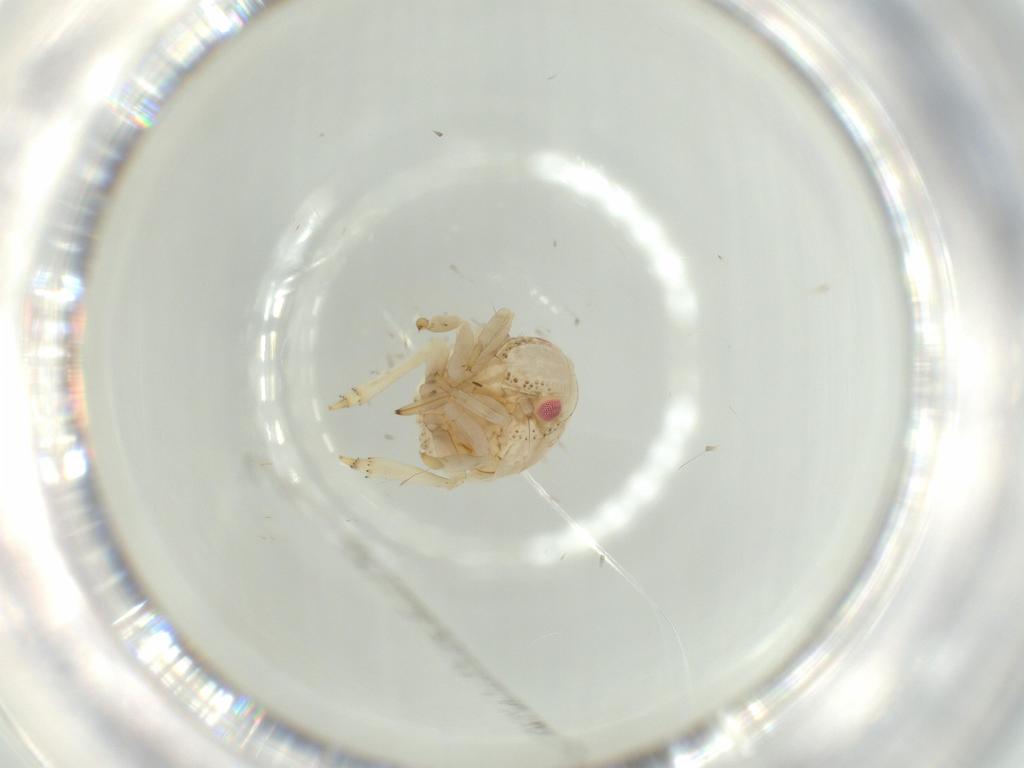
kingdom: Animalia
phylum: Arthropoda
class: Insecta
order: Hemiptera
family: Acanaloniidae
